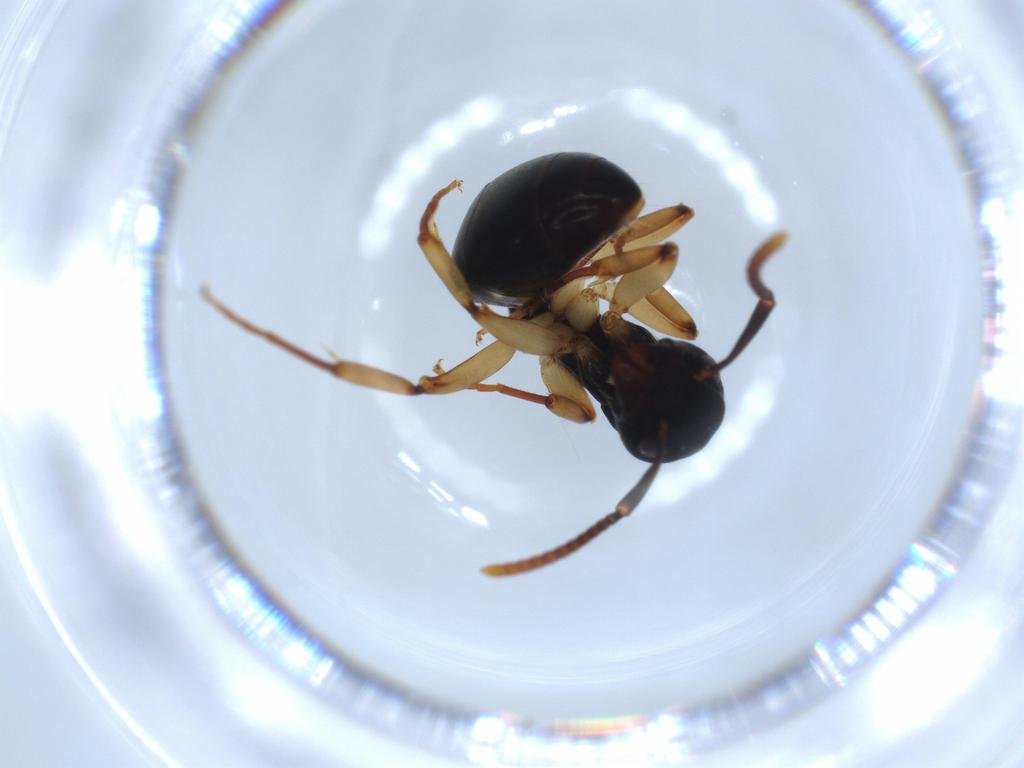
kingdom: Animalia
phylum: Arthropoda
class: Insecta
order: Hymenoptera
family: Formicidae
